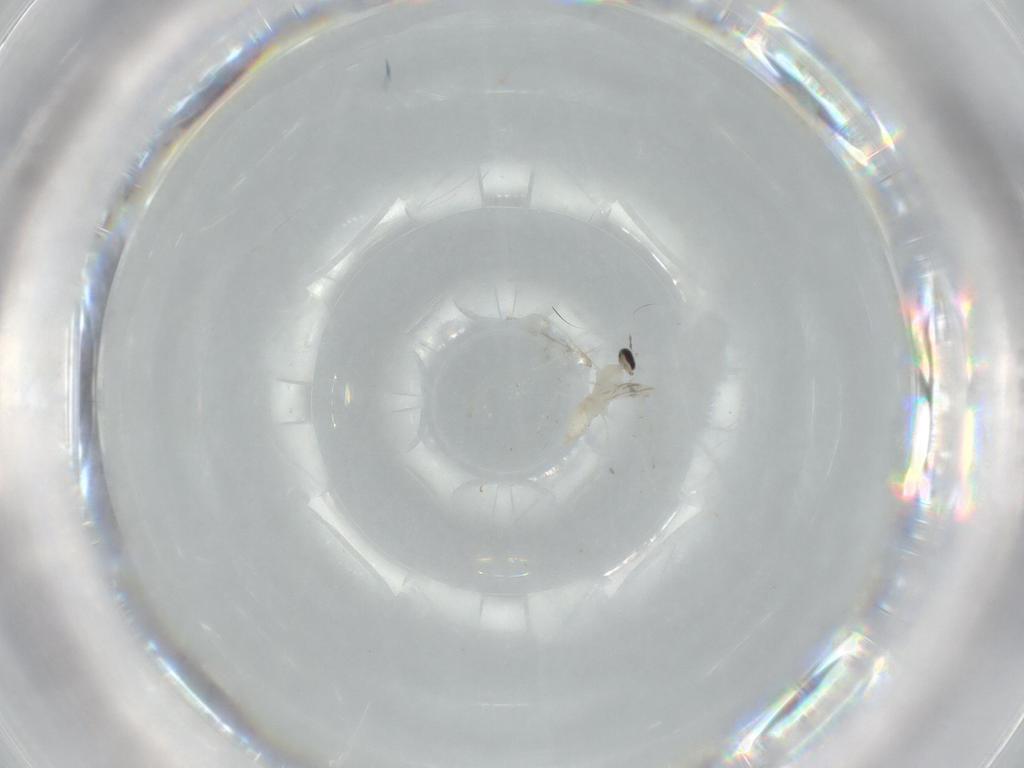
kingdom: Animalia
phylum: Arthropoda
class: Insecta
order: Diptera
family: Cecidomyiidae
